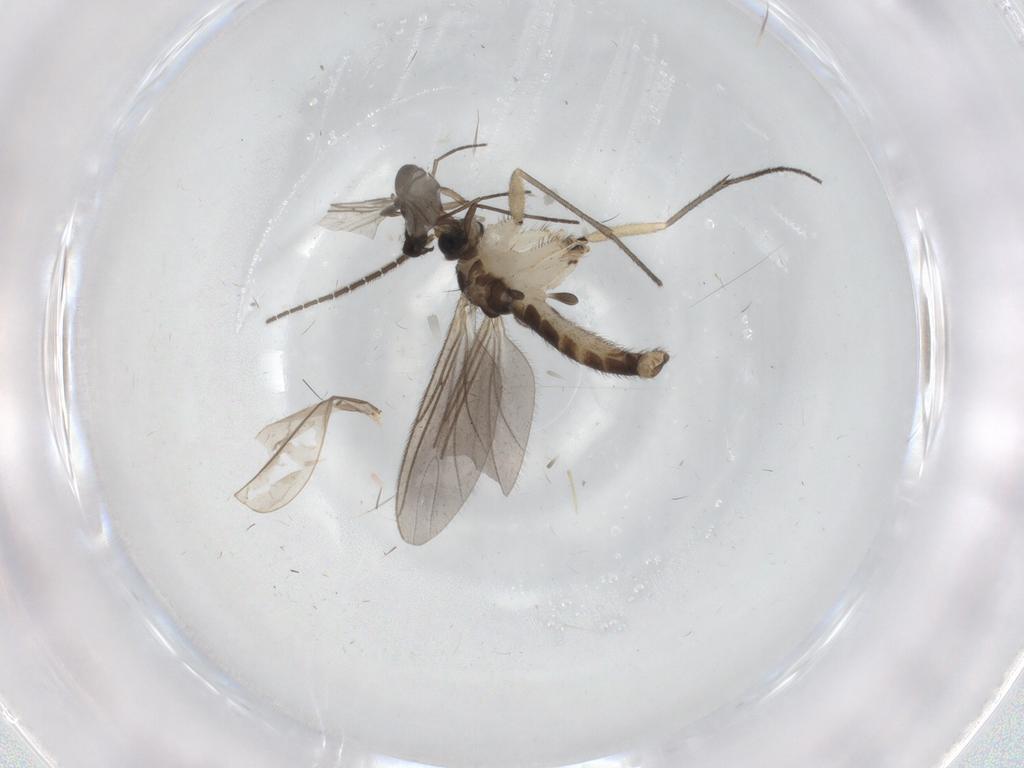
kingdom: Animalia
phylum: Arthropoda
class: Insecta
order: Diptera
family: Sciaridae
